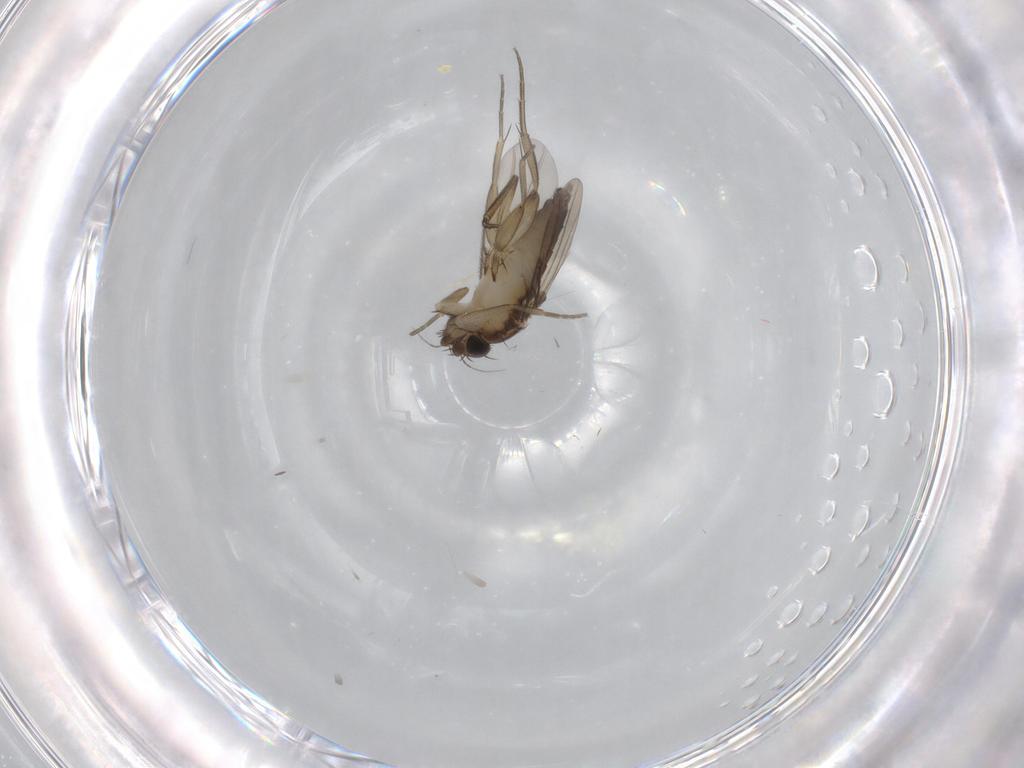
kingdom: Animalia
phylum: Arthropoda
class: Insecta
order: Diptera
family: Phoridae
